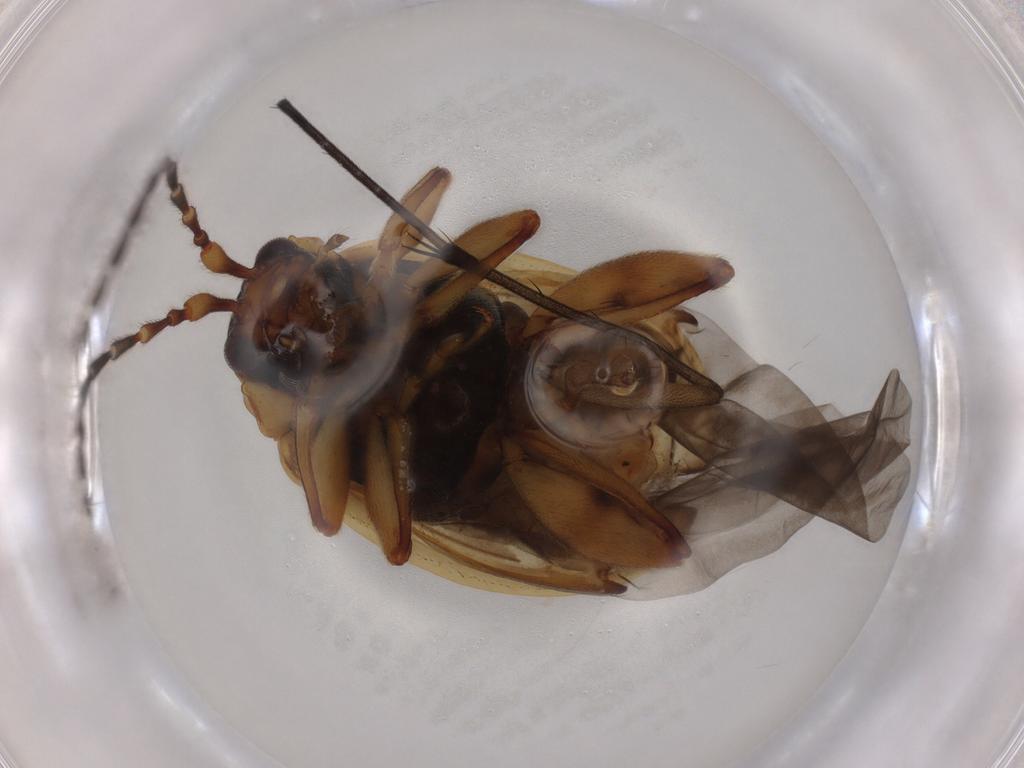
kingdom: Animalia
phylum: Arthropoda
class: Insecta
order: Coleoptera
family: Chrysomelidae
